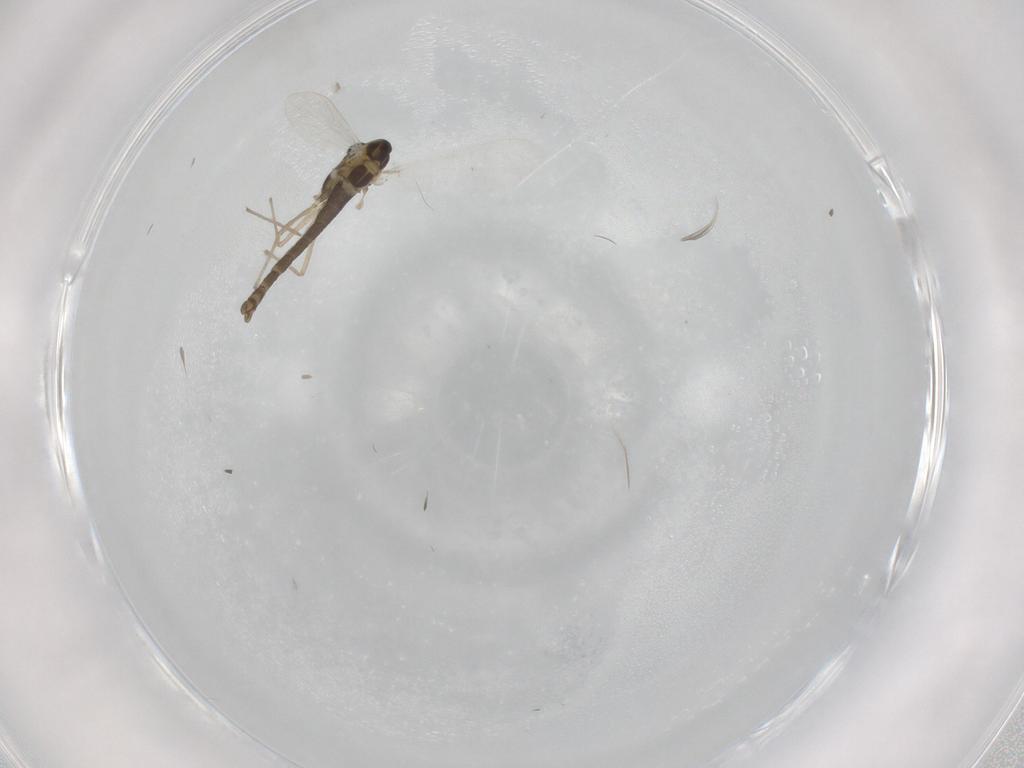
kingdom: Animalia
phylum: Arthropoda
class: Insecta
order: Diptera
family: Chironomidae
